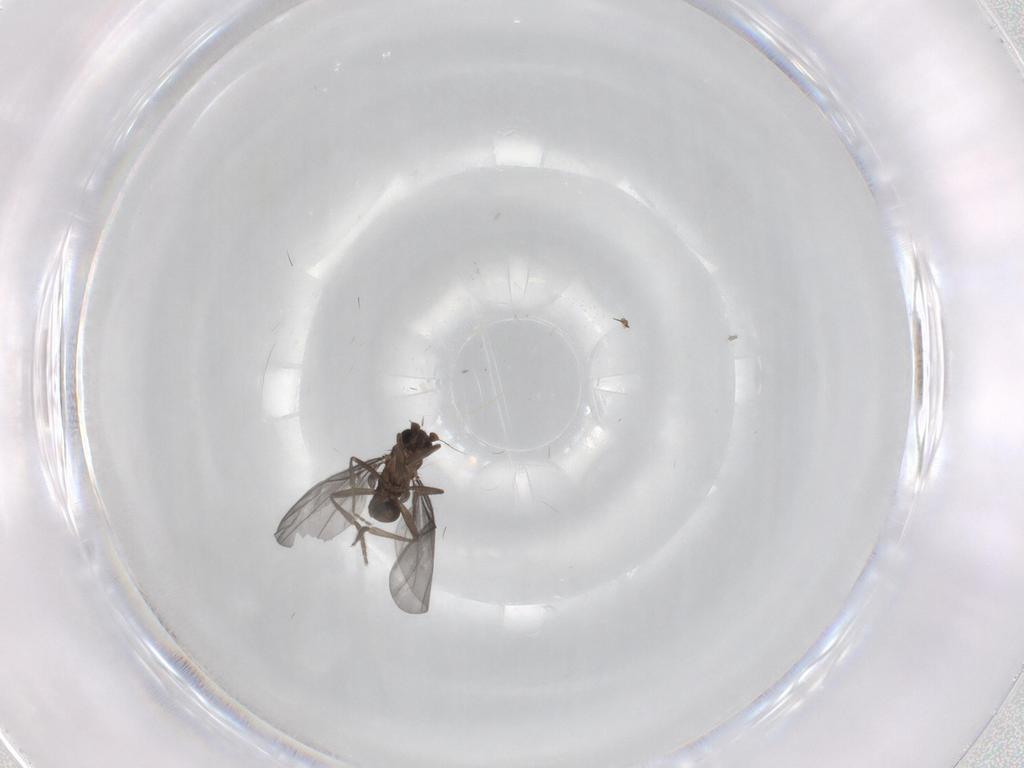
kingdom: Animalia
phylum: Arthropoda
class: Insecta
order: Diptera
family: Phoridae
